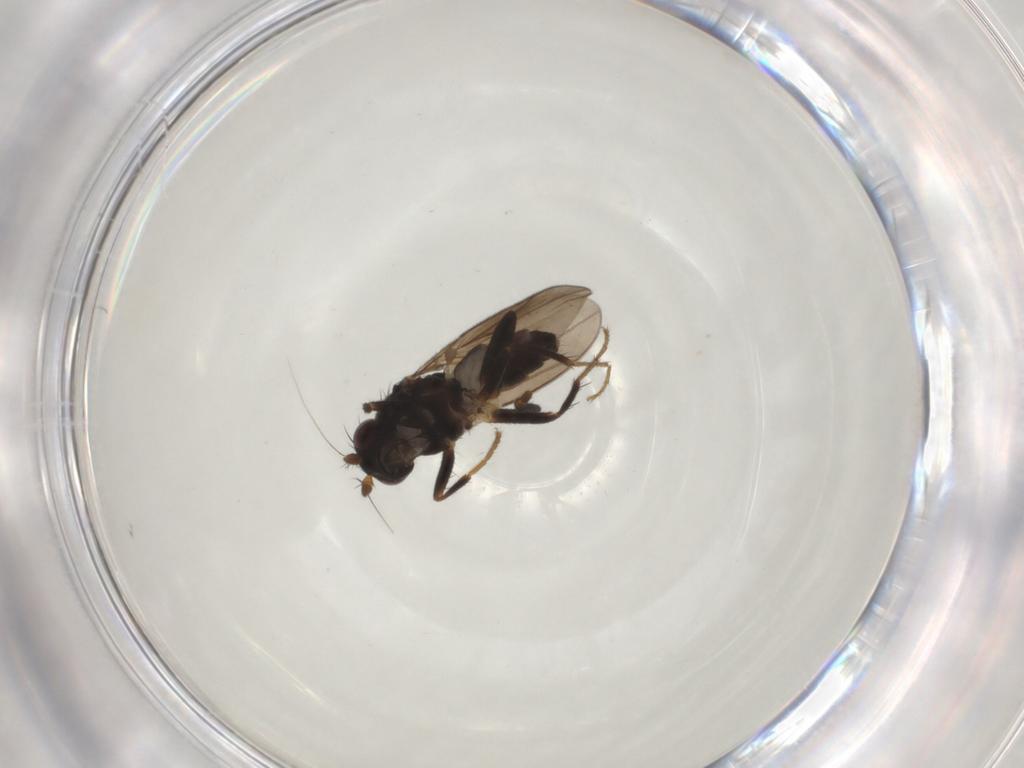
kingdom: Animalia
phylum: Arthropoda
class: Insecta
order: Diptera
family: Sphaeroceridae
